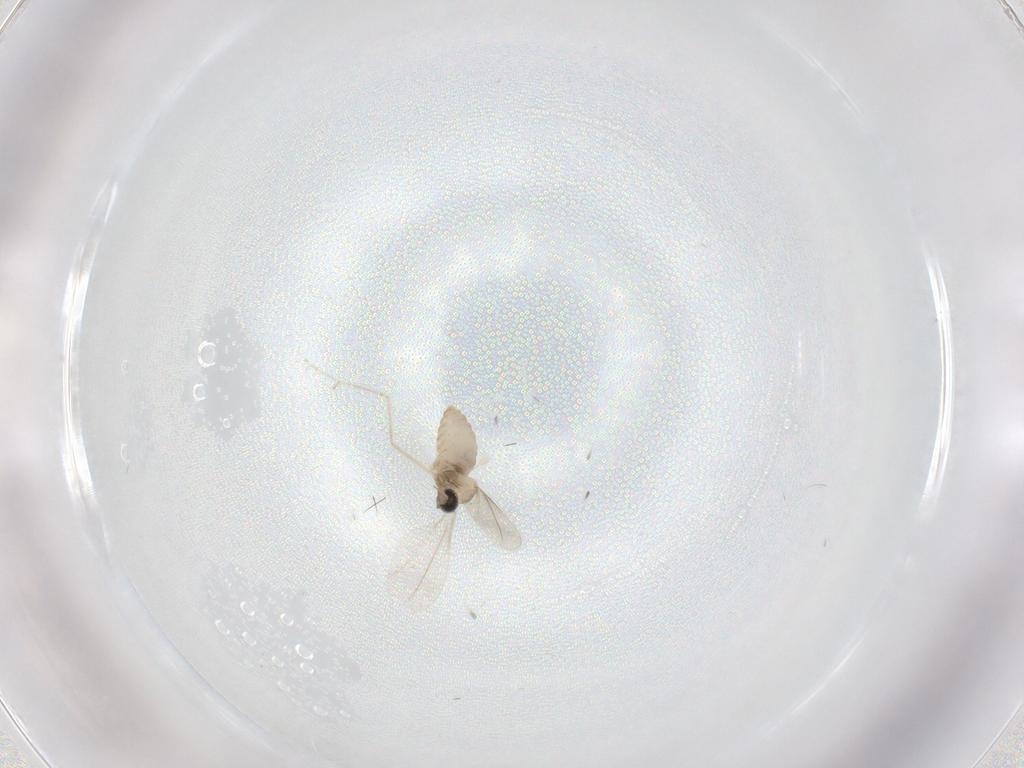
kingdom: Animalia
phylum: Arthropoda
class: Insecta
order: Diptera
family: Cecidomyiidae
